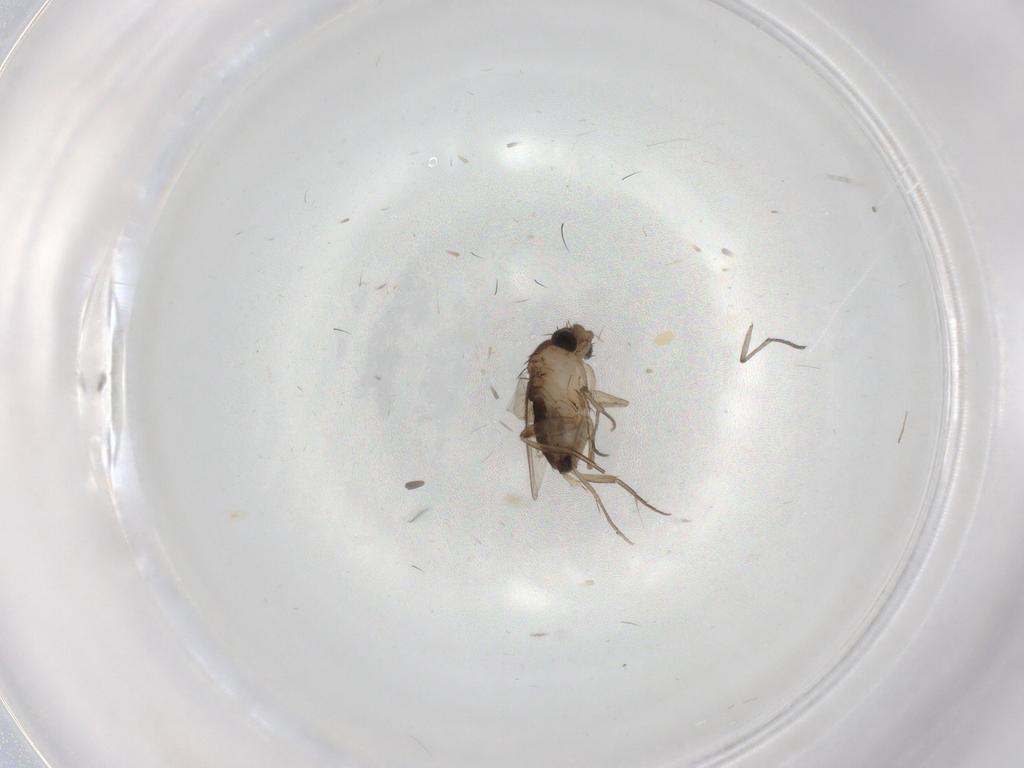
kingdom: Animalia
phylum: Arthropoda
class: Insecta
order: Diptera
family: Phoridae
